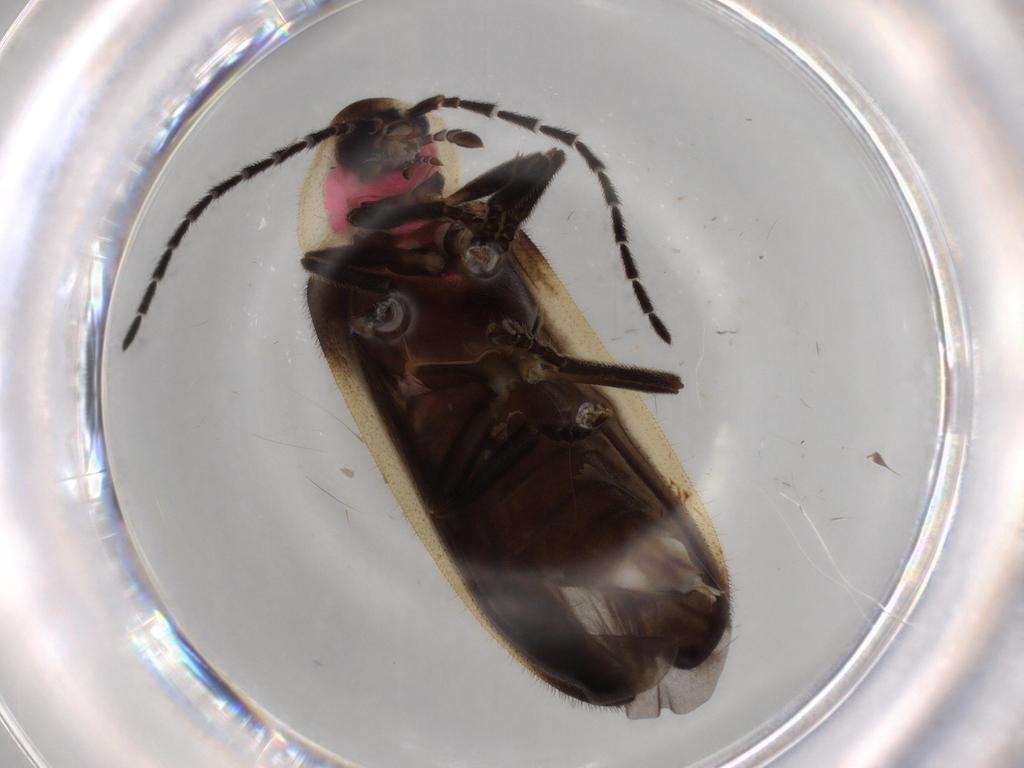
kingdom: Animalia
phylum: Arthropoda
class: Insecta
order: Coleoptera
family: Lampyridae
